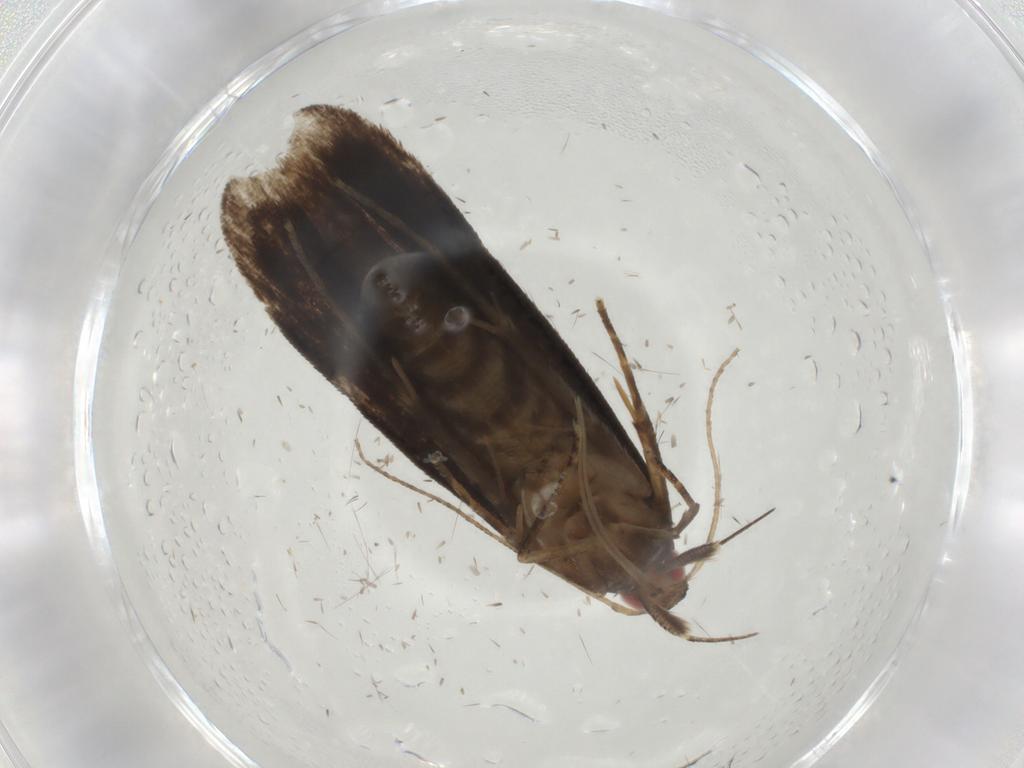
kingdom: Animalia
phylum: Arthropoda
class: Insecta
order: Lepidoptera
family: Gelechiidae
